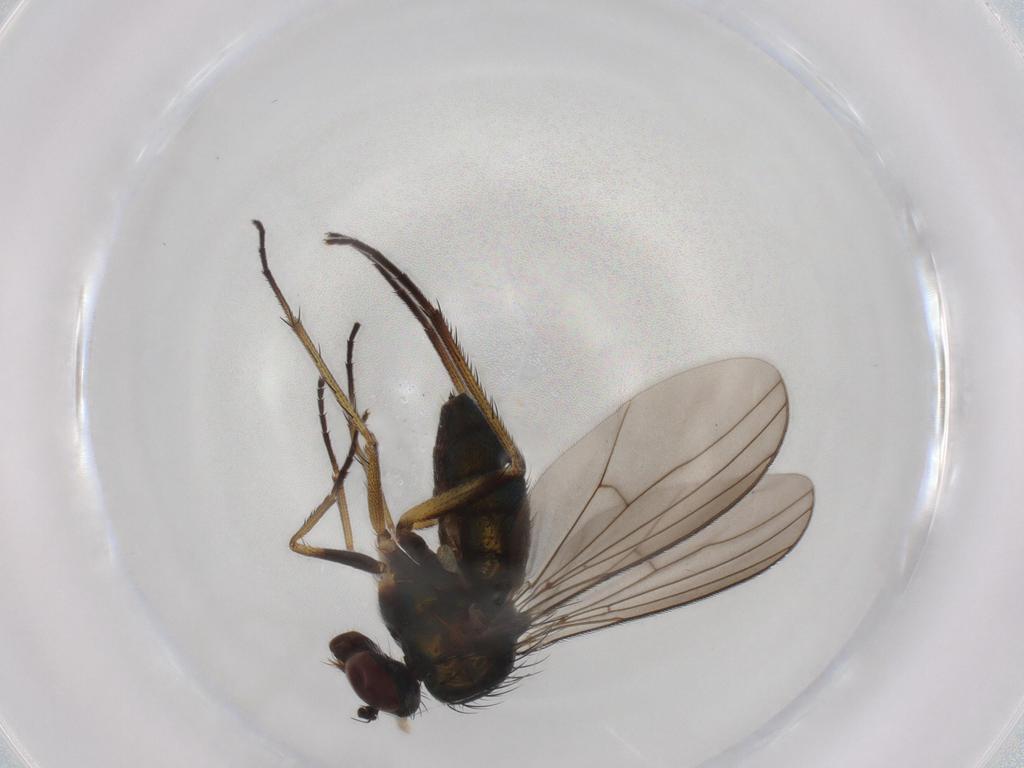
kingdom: Animalia
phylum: Arthropoda
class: Insecta
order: Diptera
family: Dolichopodidae
